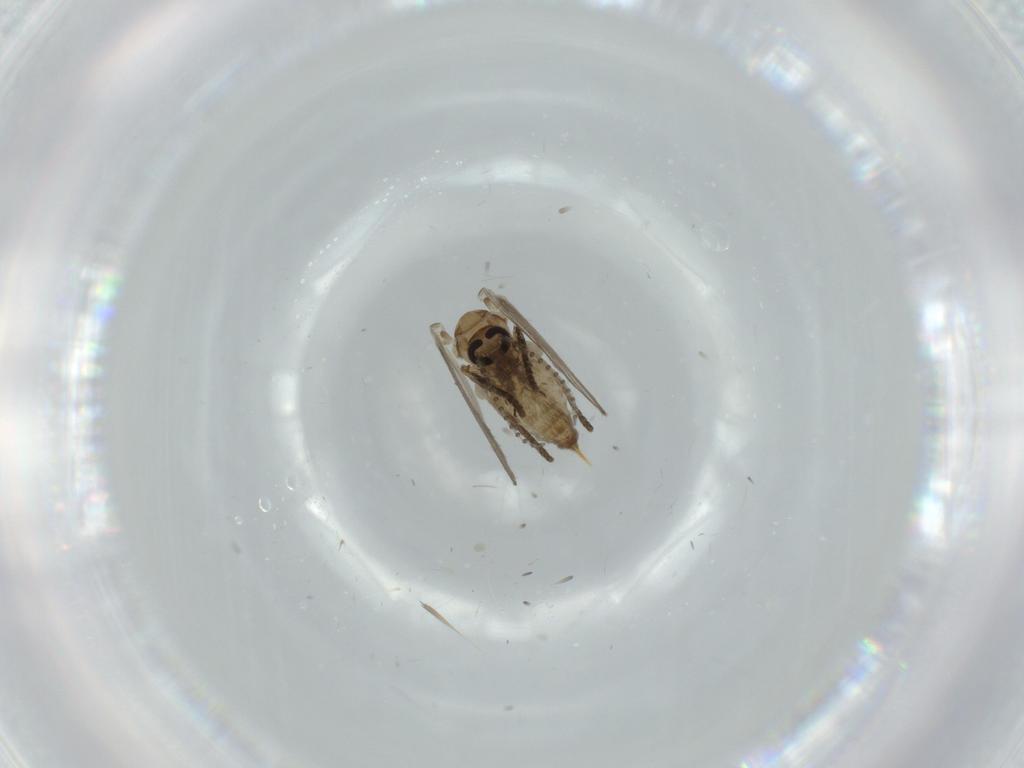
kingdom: Animalia
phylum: Arthropoda
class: Insecta
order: Diptera
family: Psychodidae
